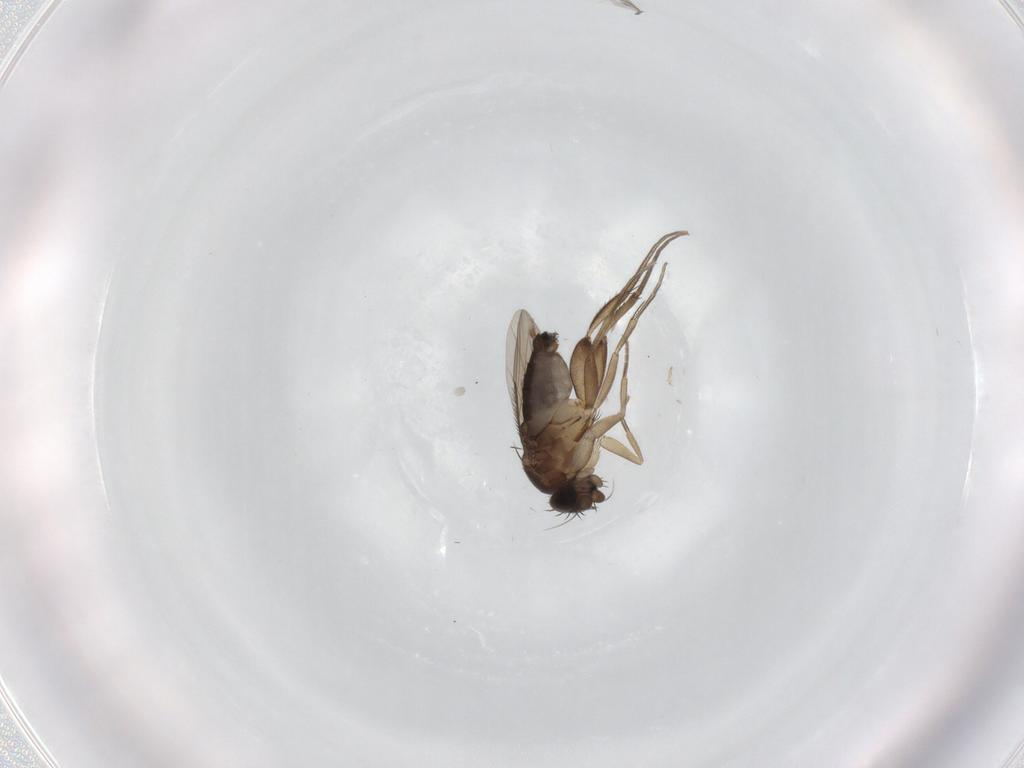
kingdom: Animalia
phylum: Arthropoda
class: Insecta
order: Diptera
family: Phoridae
